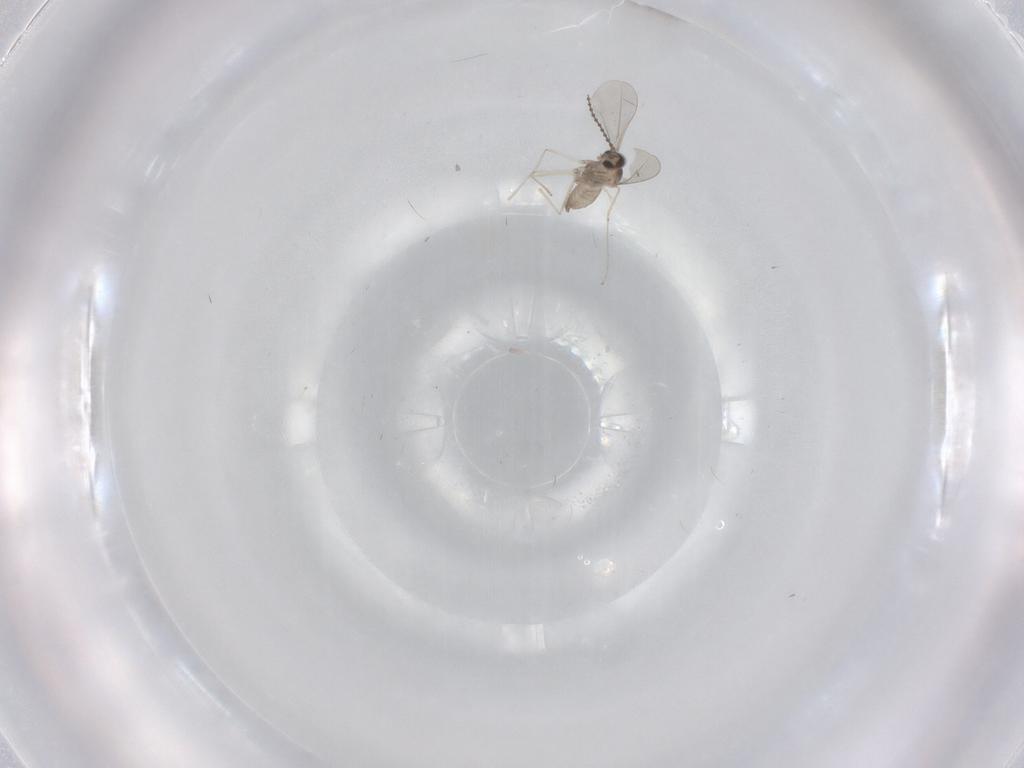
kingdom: Animalia
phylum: Arthropoda
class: Insecta
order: Diptera
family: Cecidomyiidae
